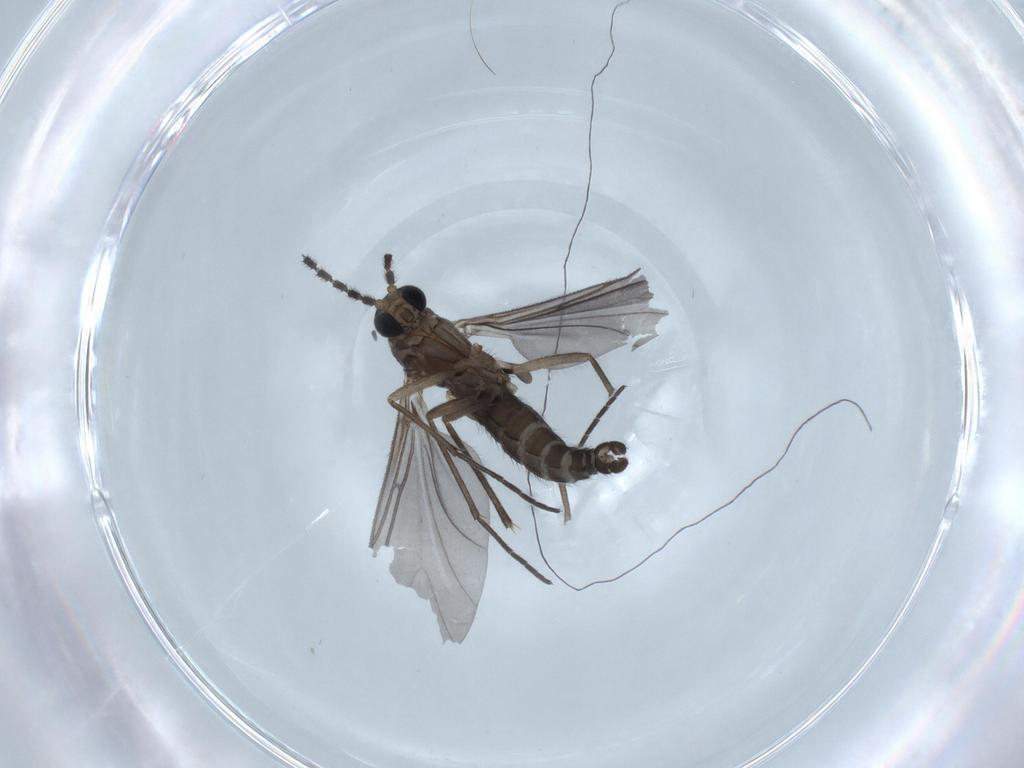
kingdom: Animalia
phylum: Arthropoda
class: Insecta
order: Diptera
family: Sciaridae
